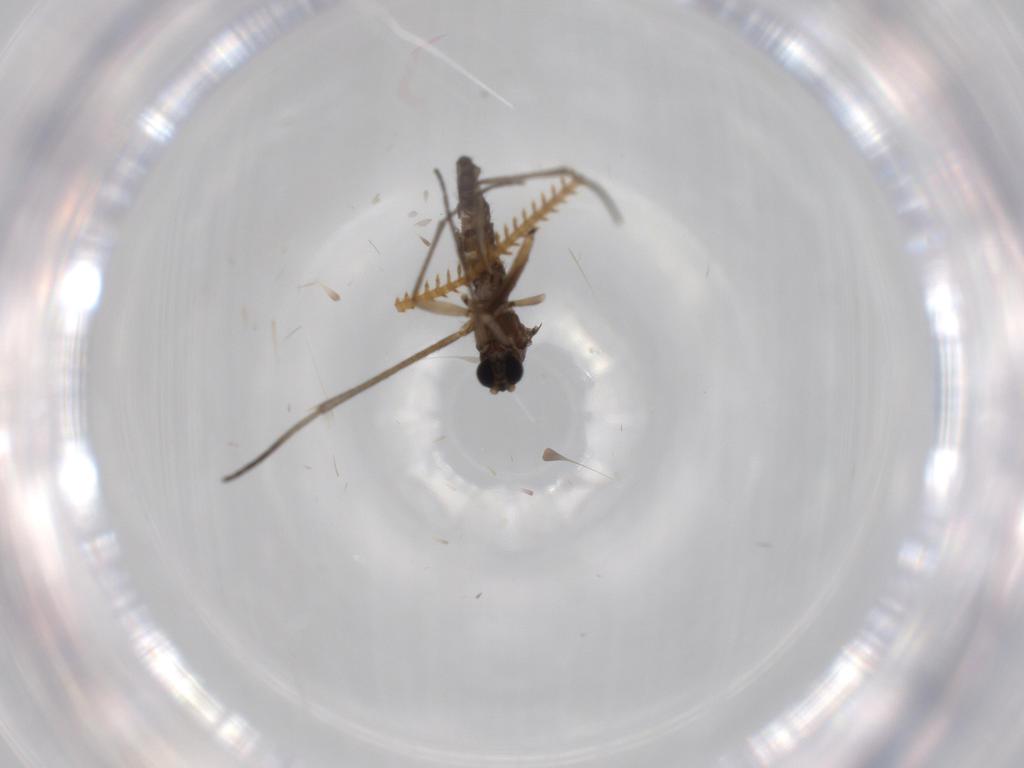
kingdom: Animalia
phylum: Arthropoda
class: Insecta
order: Diptera
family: Sciaridae
